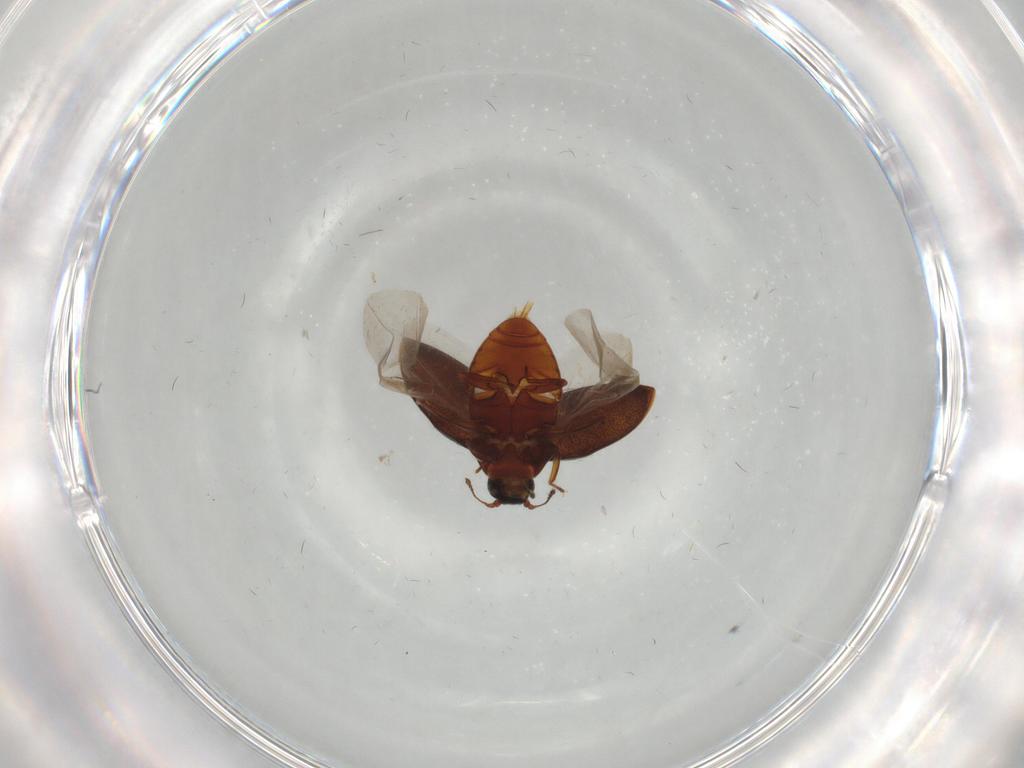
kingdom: Animalia
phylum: Arthropoda
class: Insecta
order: Coleoptera
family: Limnichidae
